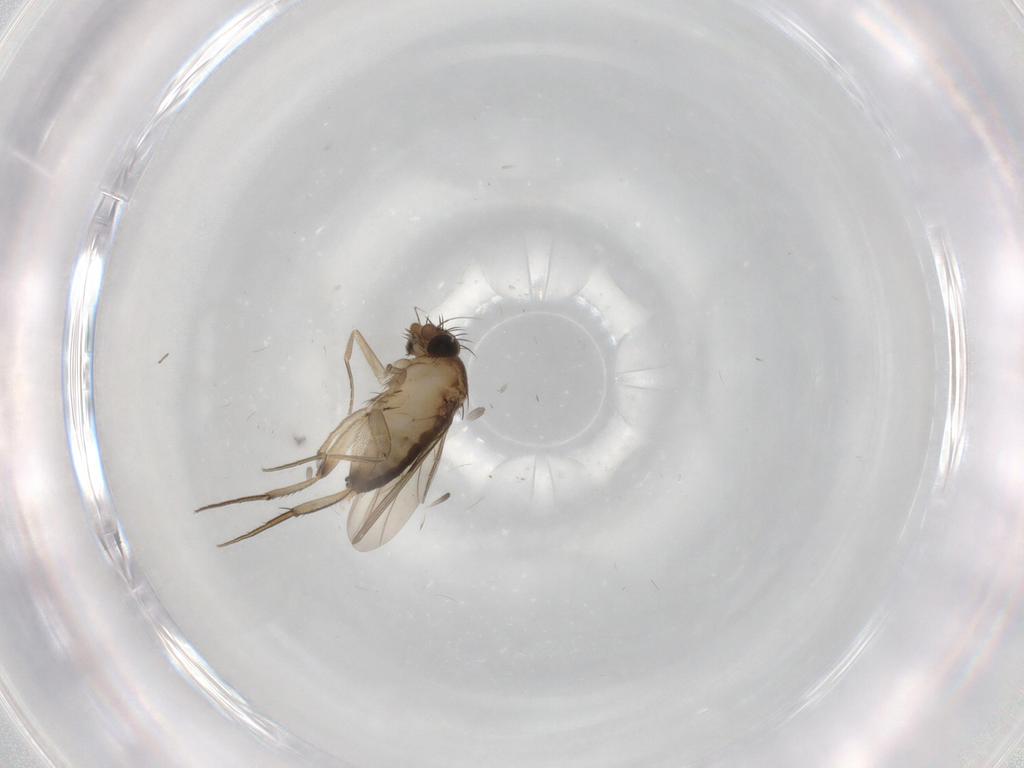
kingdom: Animalia
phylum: Arthropoda
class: Insecta
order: Diptera
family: Phoridae
